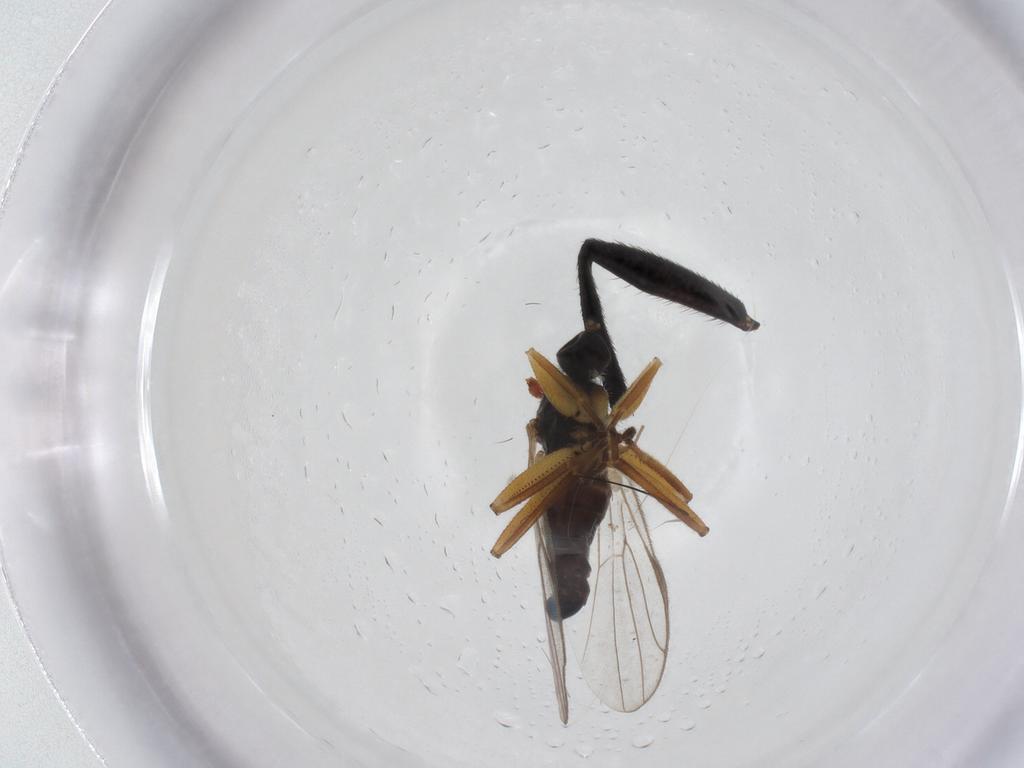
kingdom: Animalia
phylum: Arthropoda
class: Insecta
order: Diptera
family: Hybotidae
